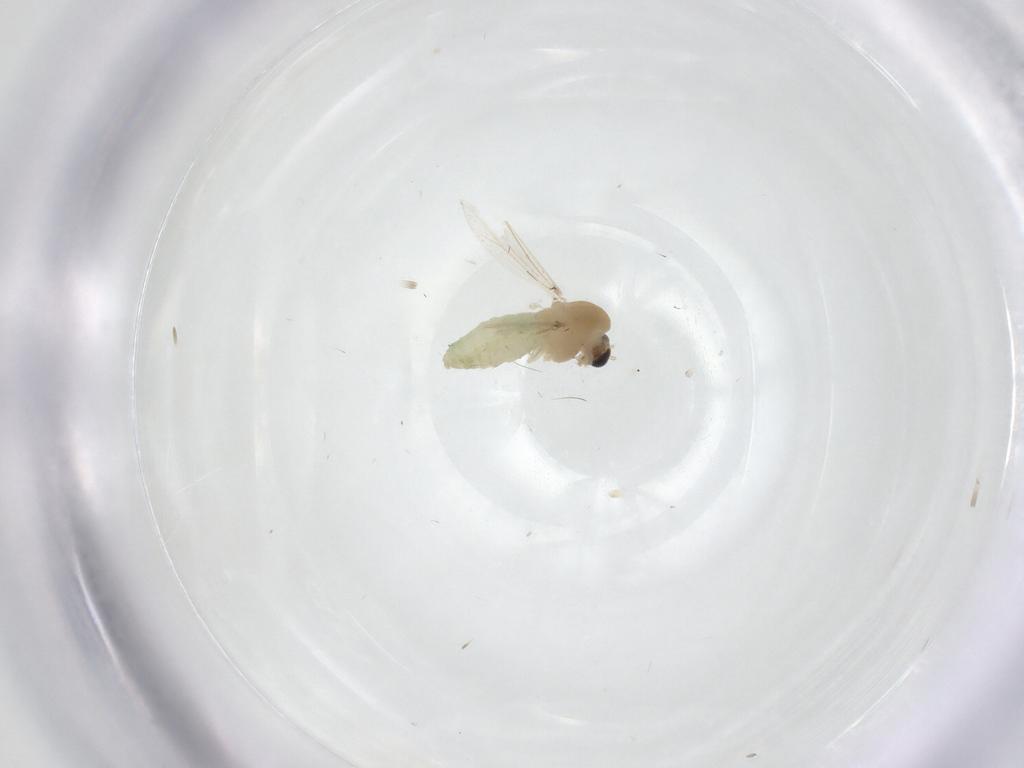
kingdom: Animalia
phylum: Arthropoda
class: Insecta
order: Diptera
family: Chironomidae
